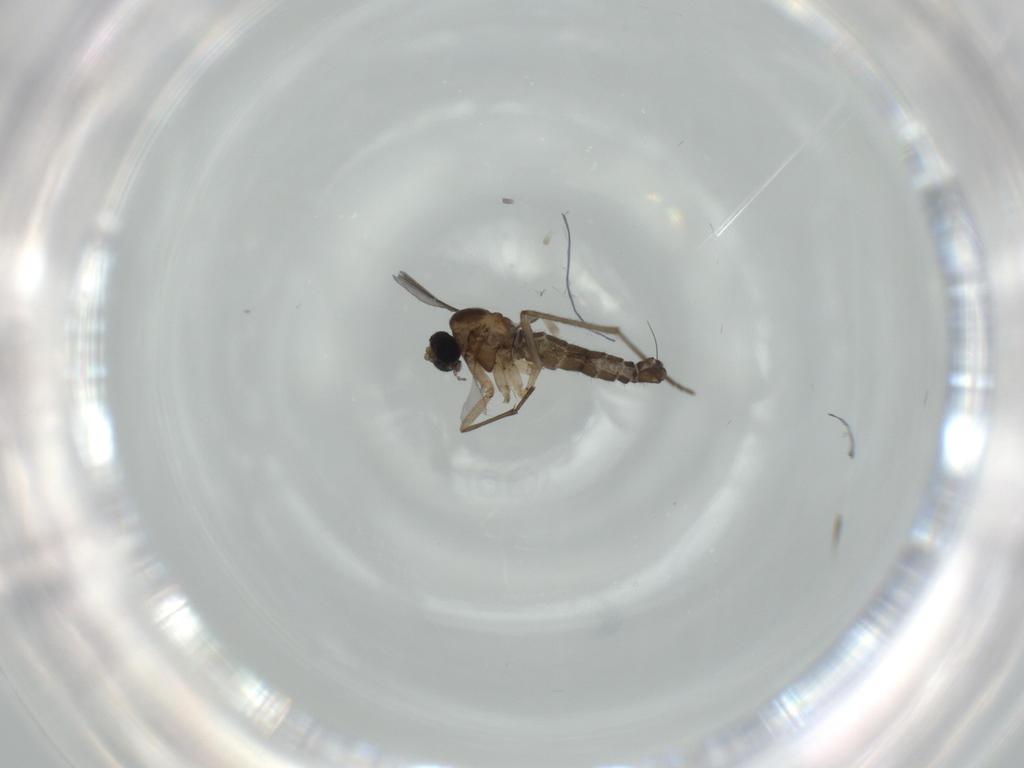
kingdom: Animalia
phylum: Arthropoda
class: Insecta
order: Diptera
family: Sciaridae
